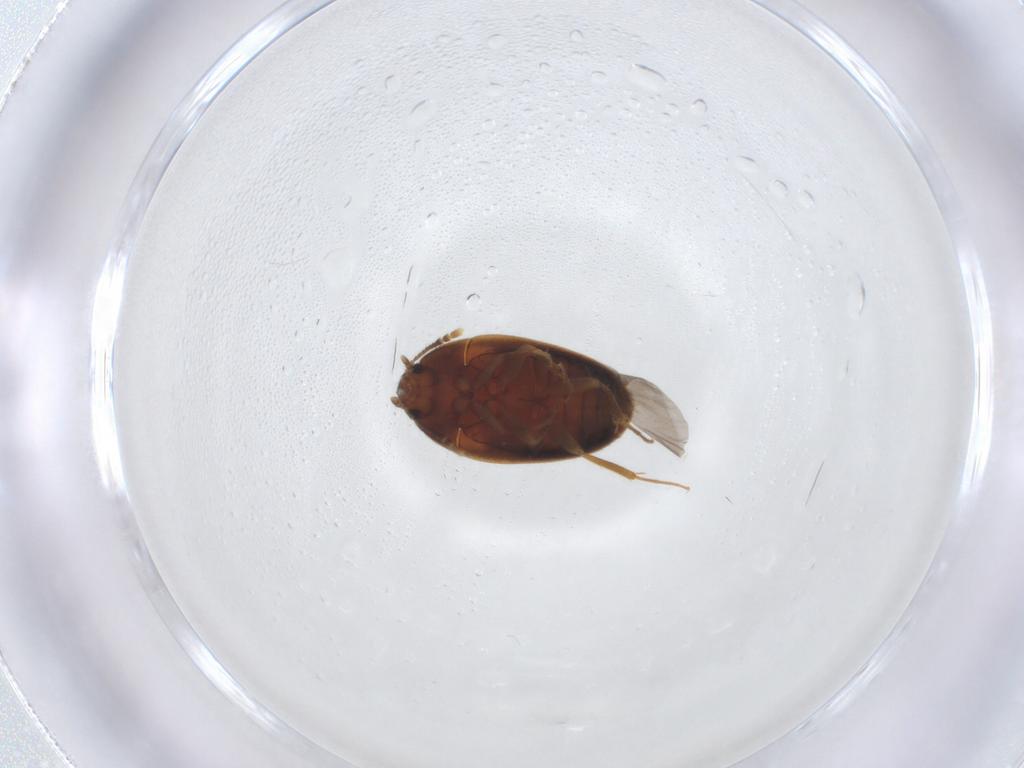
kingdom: Animalia
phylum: Arthropoda
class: Insecta
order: Coleoptera
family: Mycetophagidae
